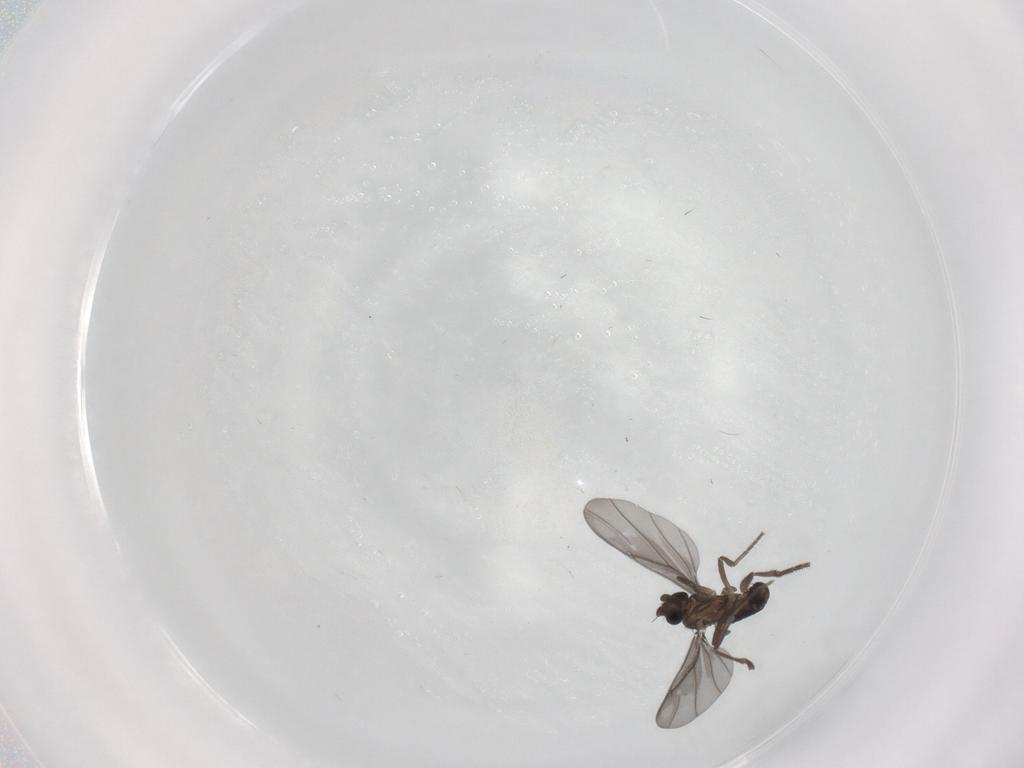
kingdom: Animalia
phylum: Arthropoda
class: Insecta
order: Diptera
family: Phoridae
